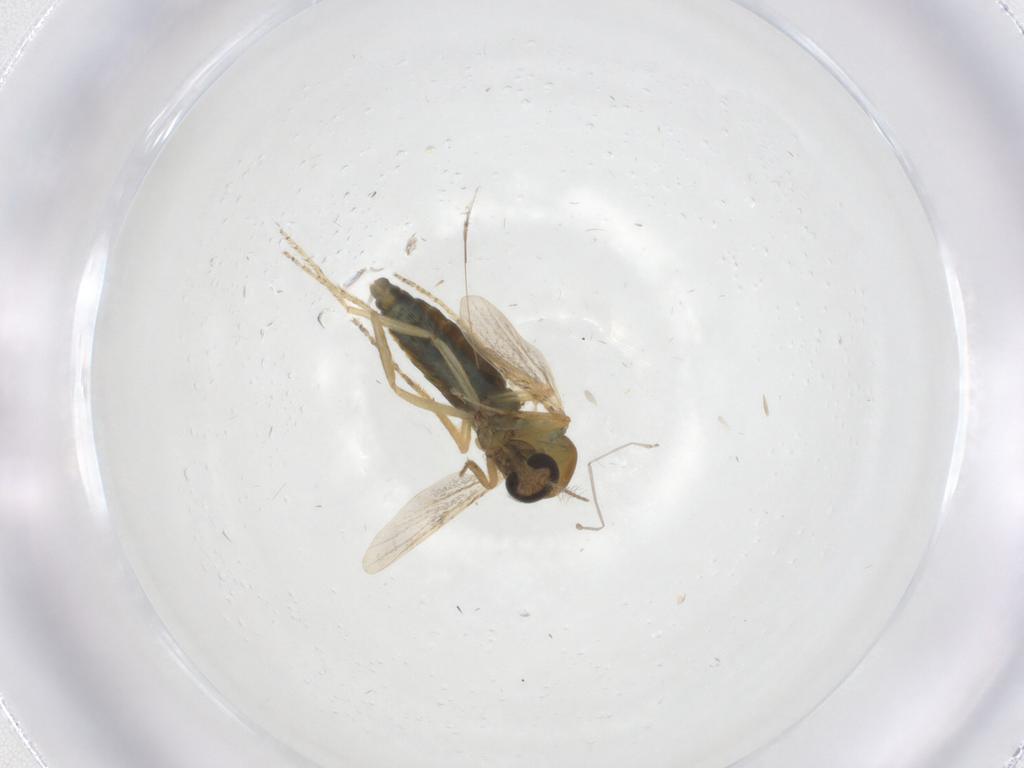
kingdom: Animalia
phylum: Arthropoda
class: Insecta
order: Diptera
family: Ceratopogonidae
